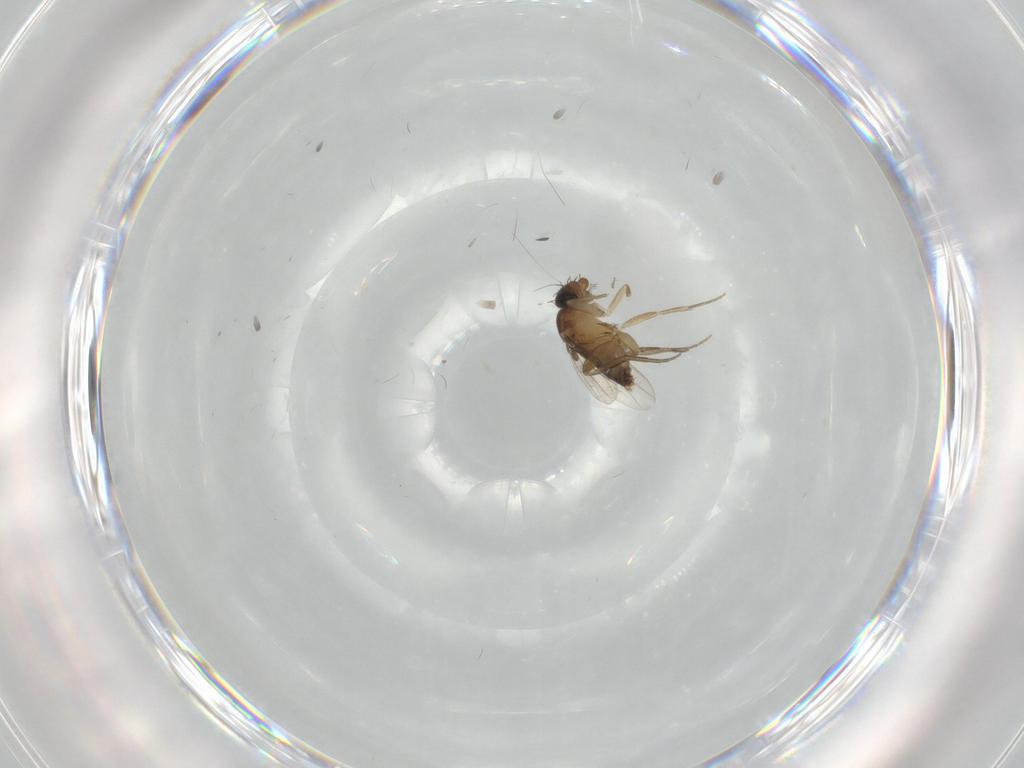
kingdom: Animalia
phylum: Arthropoda
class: Insecta
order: Diptera
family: Phoridae
